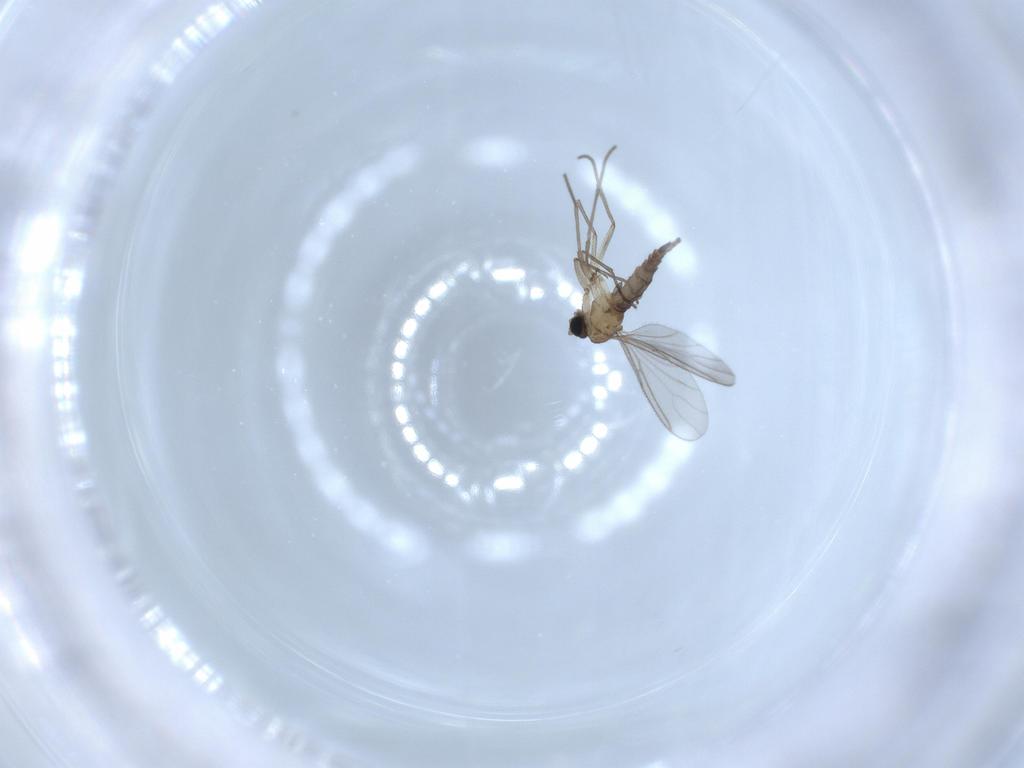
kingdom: Animalia
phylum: Arthropoda
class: Insecta
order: Diptera
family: Sciaridae
